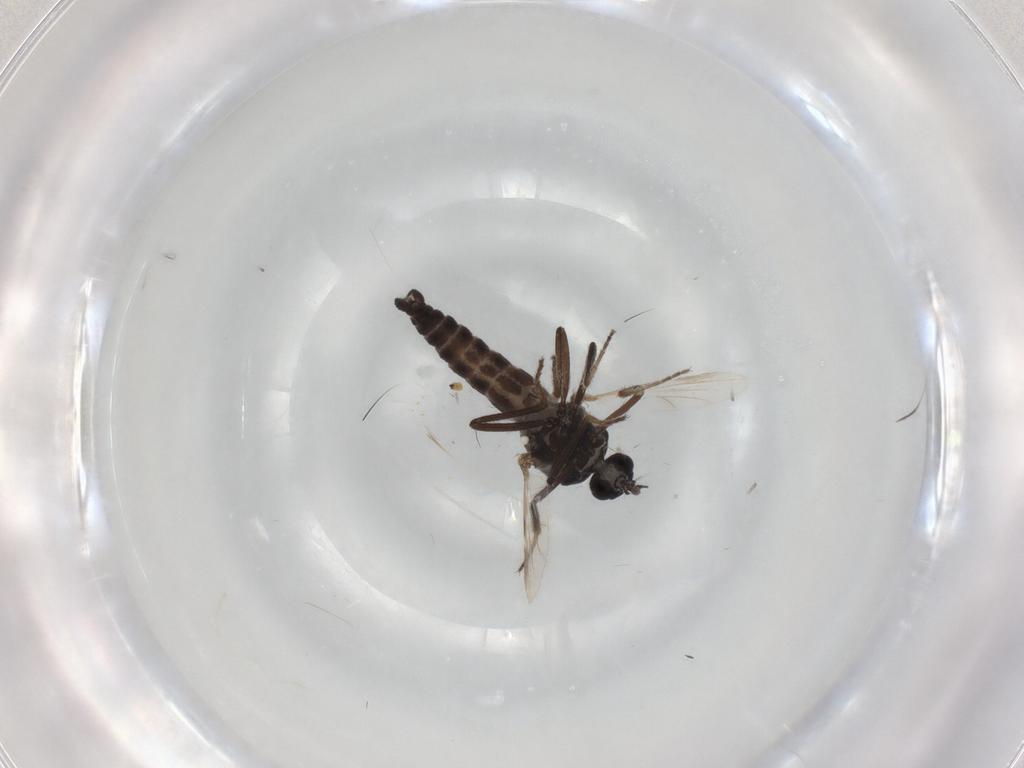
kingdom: Animalia
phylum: Arthropoda
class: Insecta
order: Diptera
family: Ceratopogonidae
